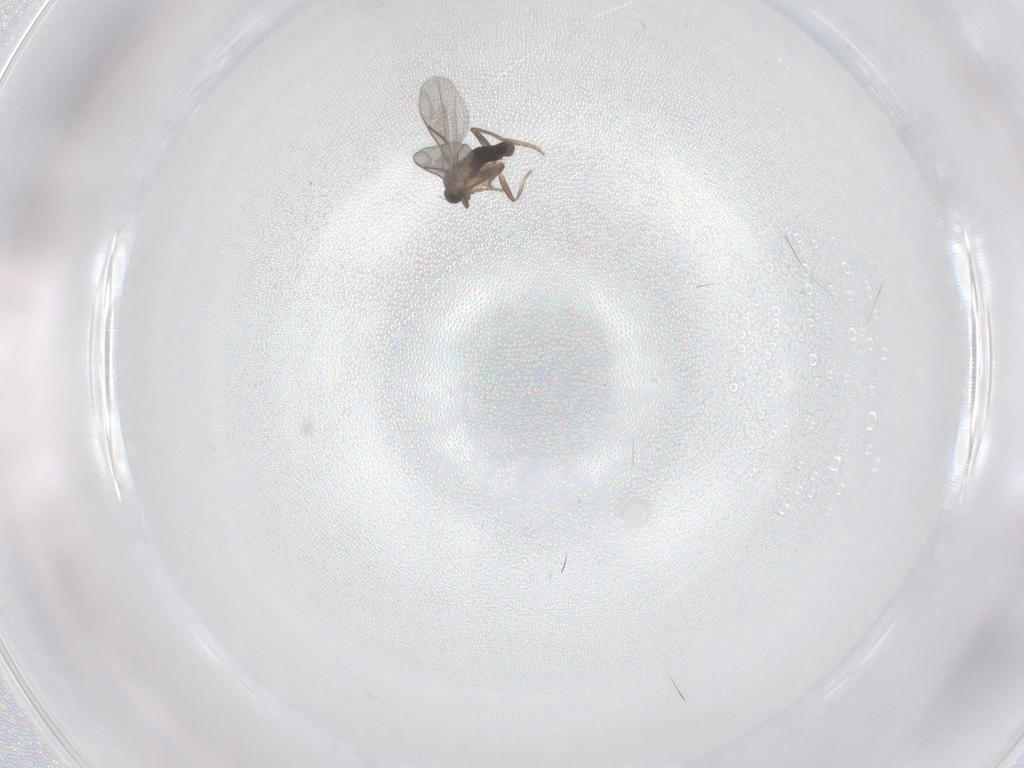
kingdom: Animalia
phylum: Arthropoda
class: Insecta
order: Diptera
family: Cecidomyiidae
